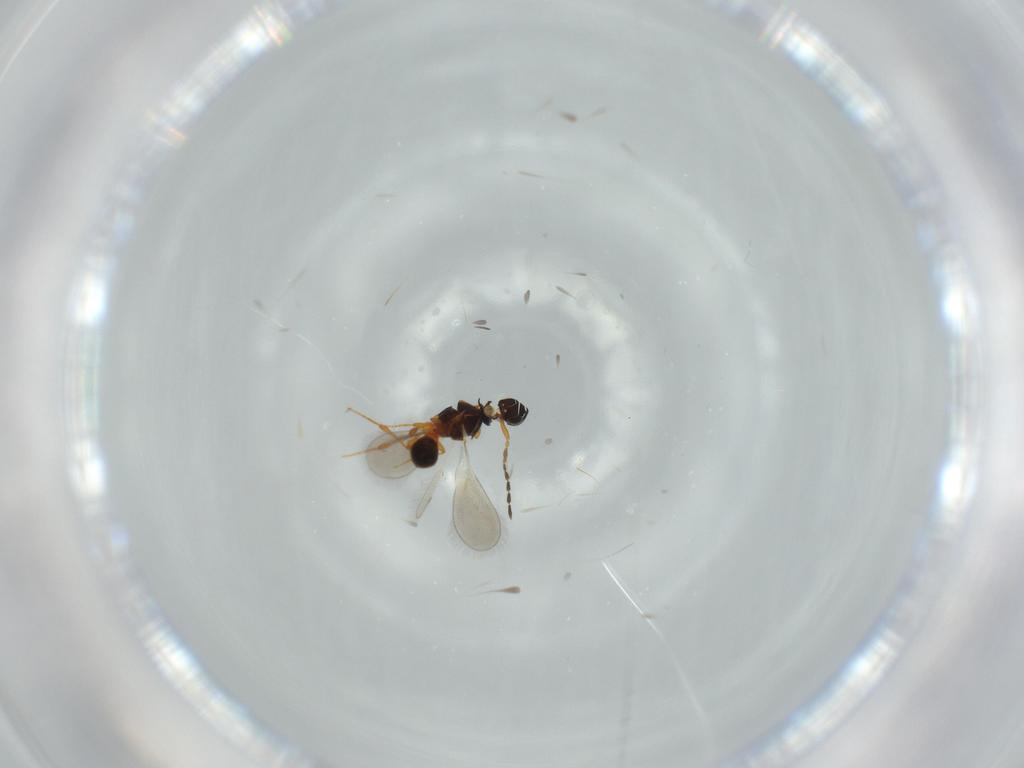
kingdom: Animalia
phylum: Arthropoda
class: Insecta
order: Hymenoptera
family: Platygastridae
